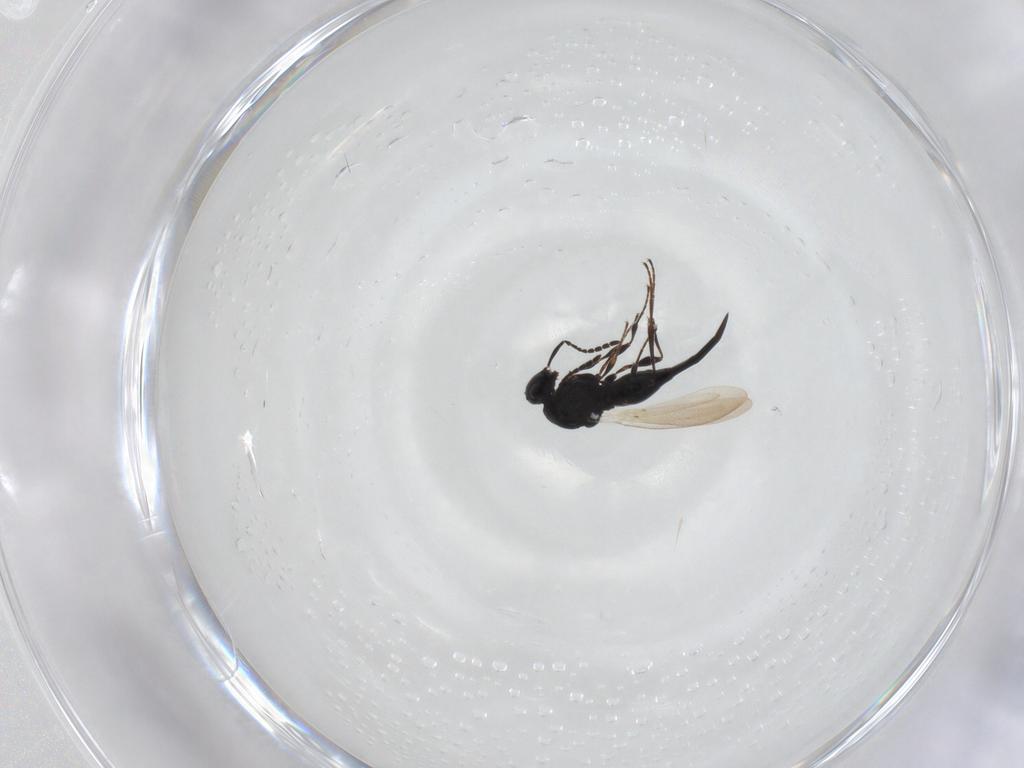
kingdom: Animalia
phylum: Arthropoda
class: Insecta
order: Hymenoptera
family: Platygastridae
